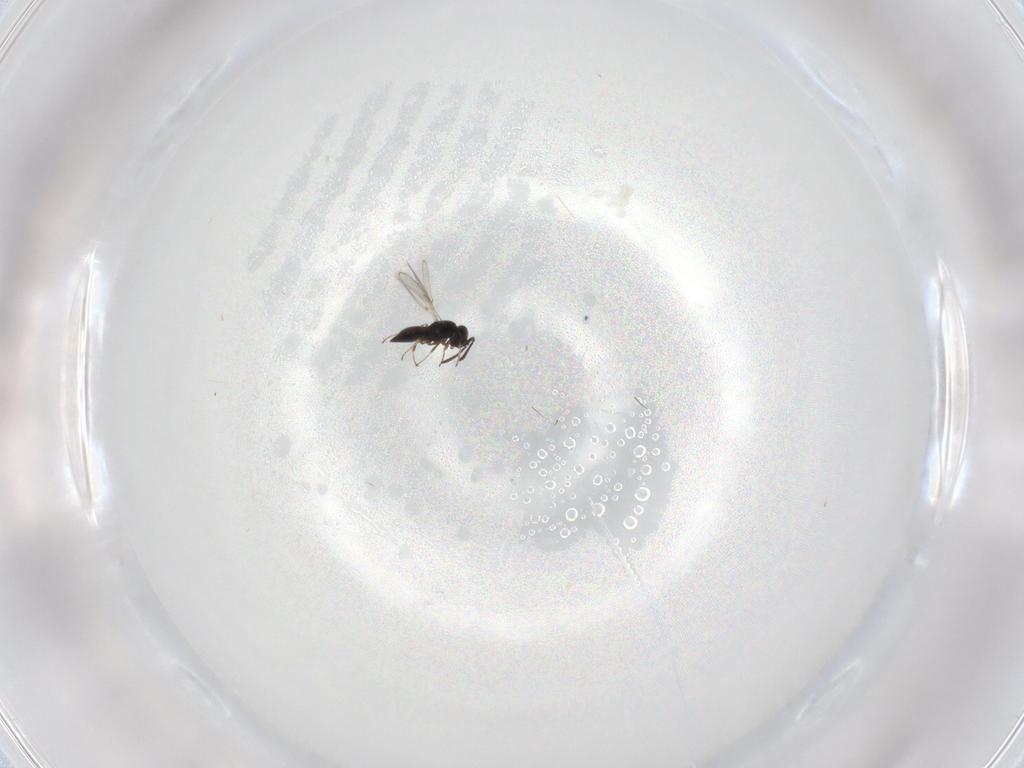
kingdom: Animalia
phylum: Arthropoda
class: Insecta
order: Hymenoptera
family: Scelionidae
